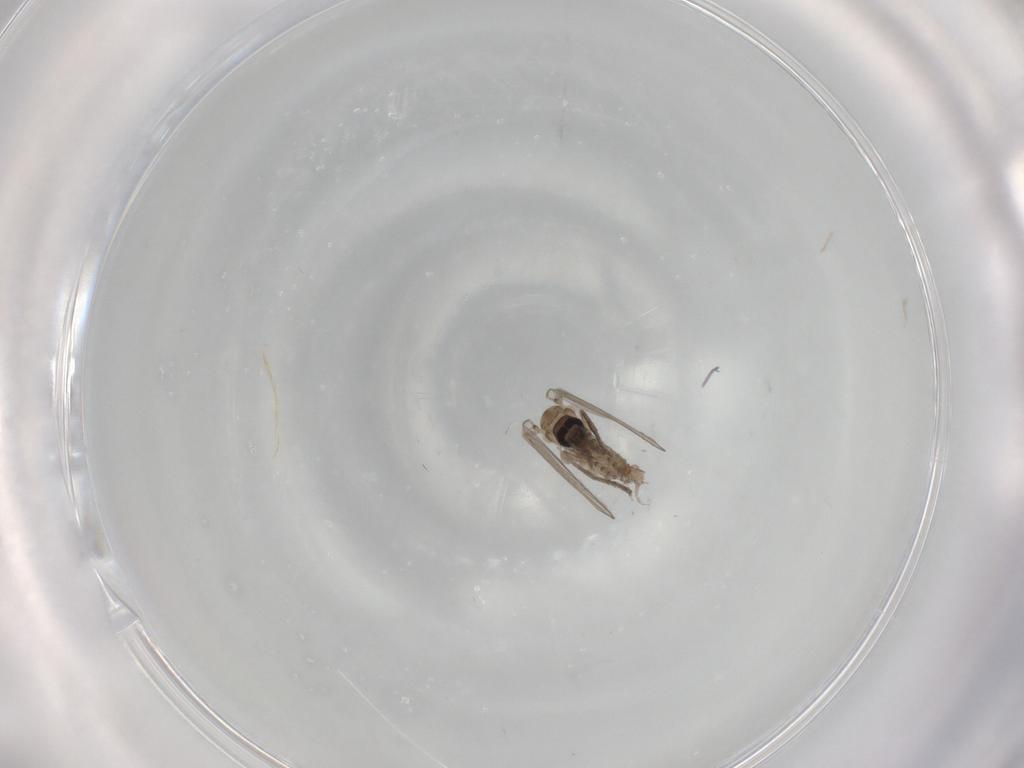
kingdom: Animalia
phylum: Arthropoda
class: Insecta
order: Diptera
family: Psychodidae
